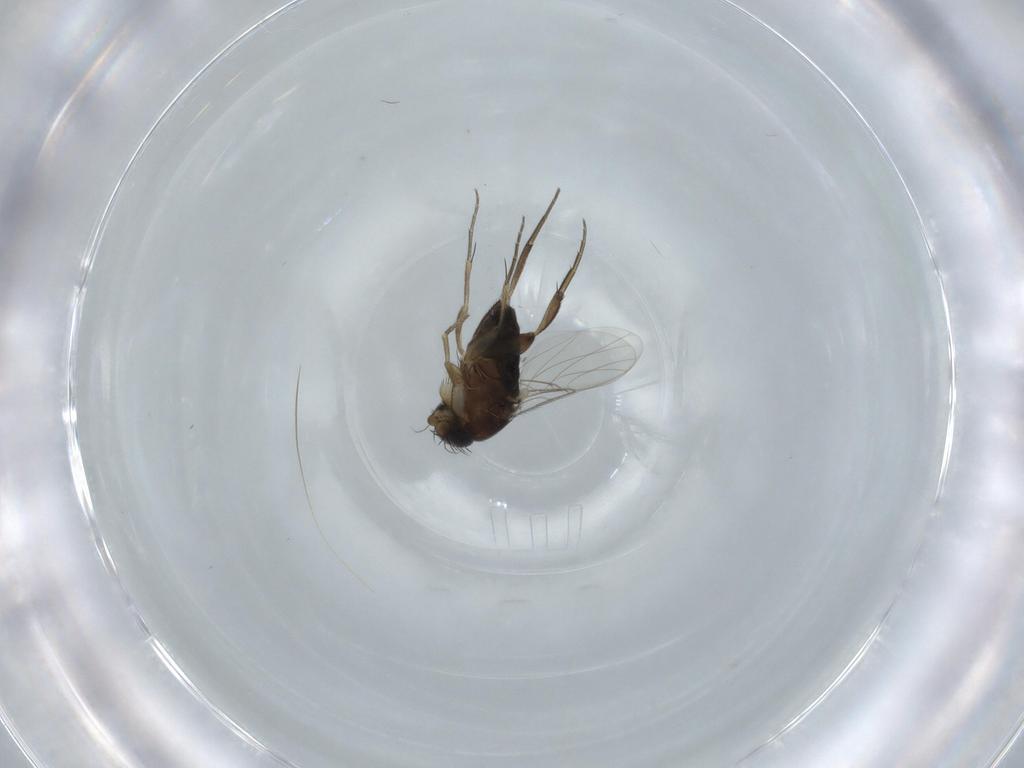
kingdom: Animalia
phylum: Arthropoda
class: Insecta
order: Diptera
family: Phoridae
